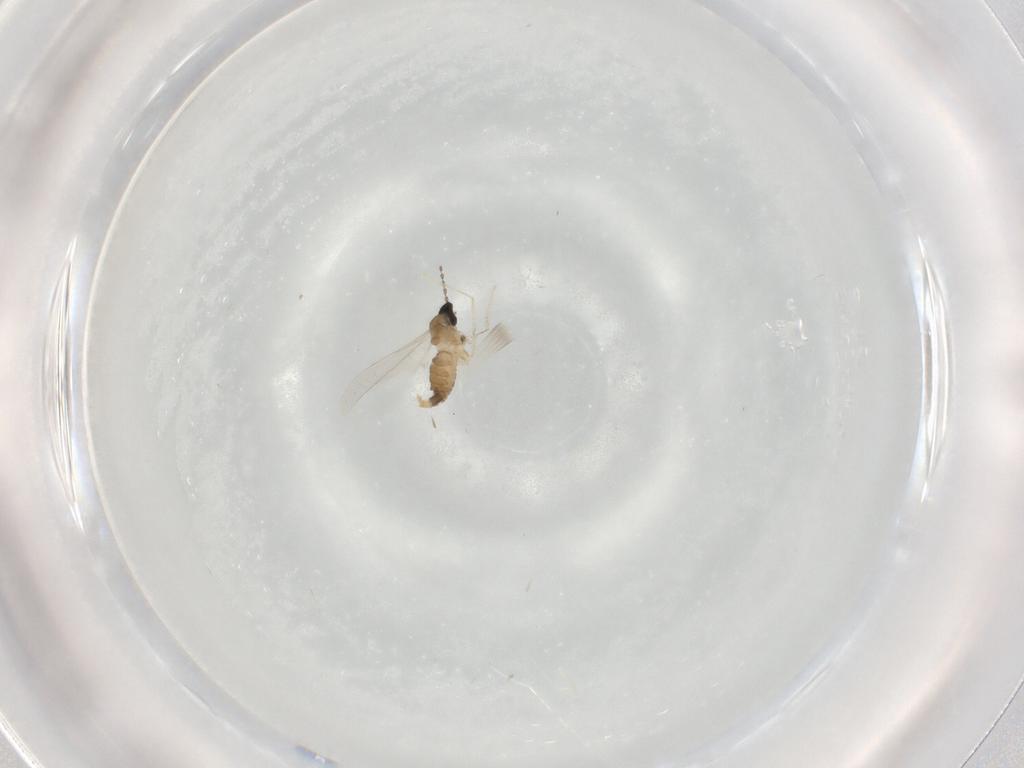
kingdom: Animalia
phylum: Arthropoda
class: Insecta
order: Diptera
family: Cecidomyiidae
